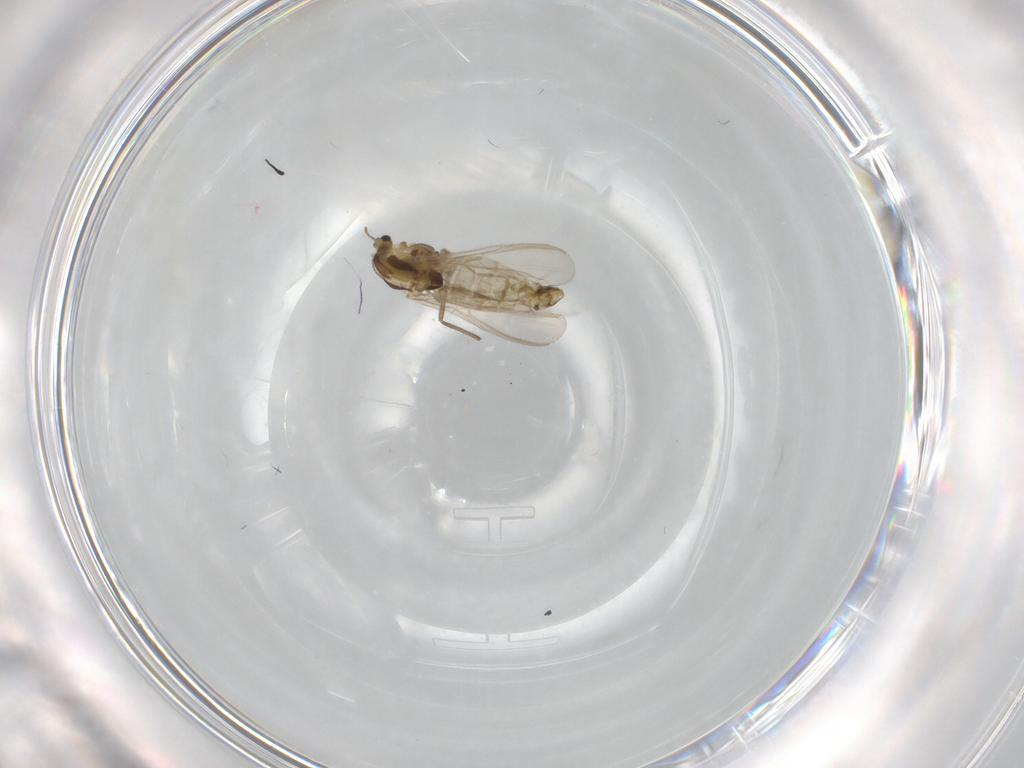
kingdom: Animalia
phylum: Arthropoda
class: Insecta
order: Diptera
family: Chironomidae
